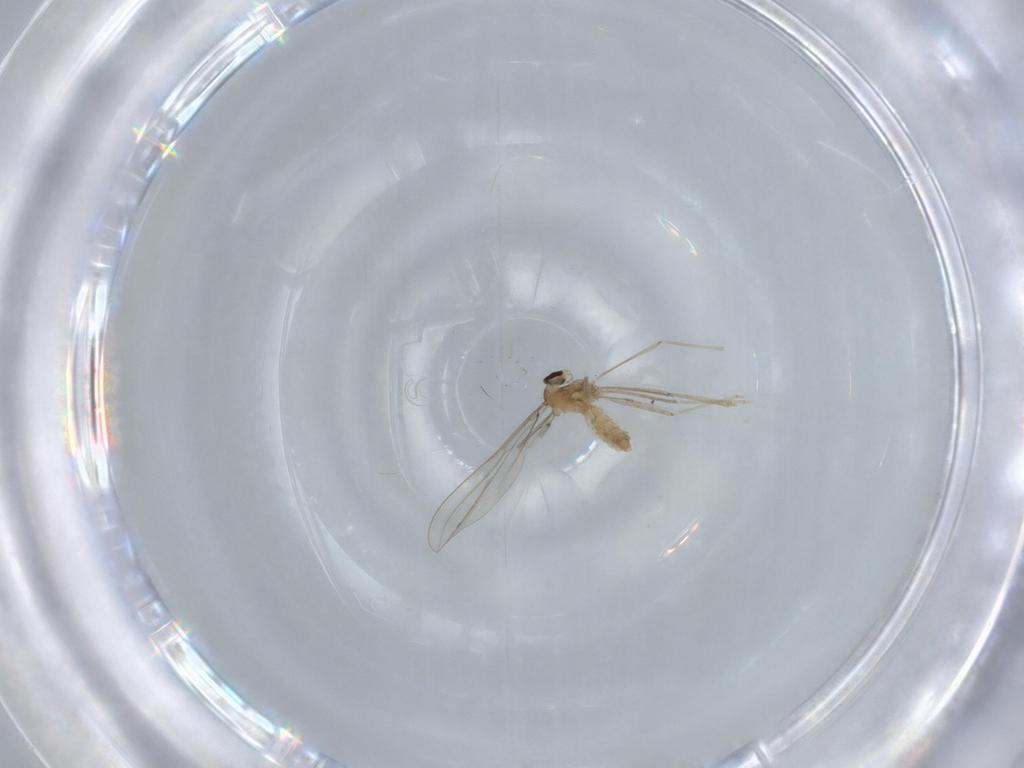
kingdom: Animalia
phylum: Arthropoda
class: Insecta
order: Diptera
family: Cecidomyiidae
